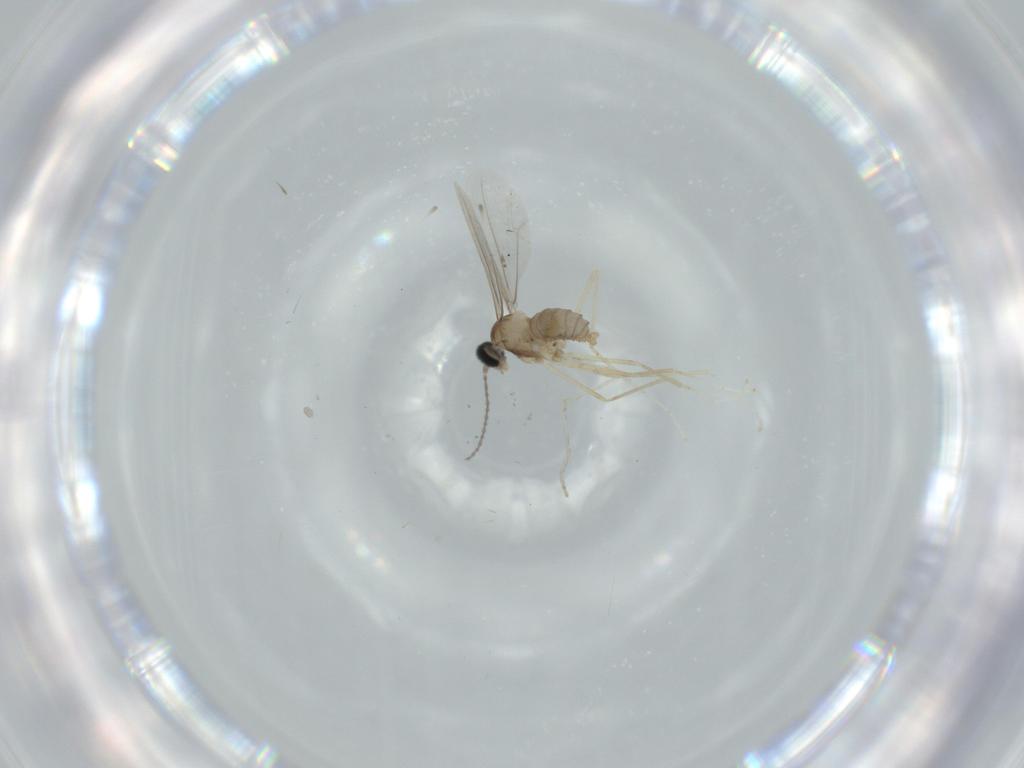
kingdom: Animalia
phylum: Arthropoda
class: Insecta
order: Diptera
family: Cecidomyiidae
